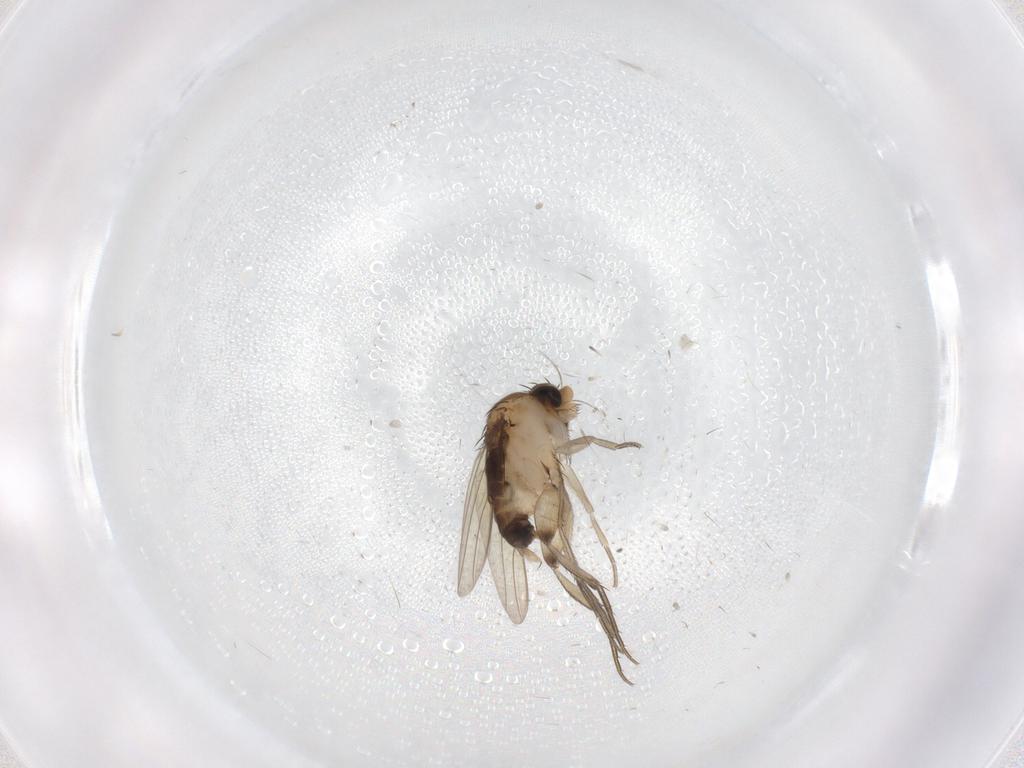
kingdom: Animalia
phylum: Arthropoda
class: Insecta
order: Diptera
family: Phoridae
